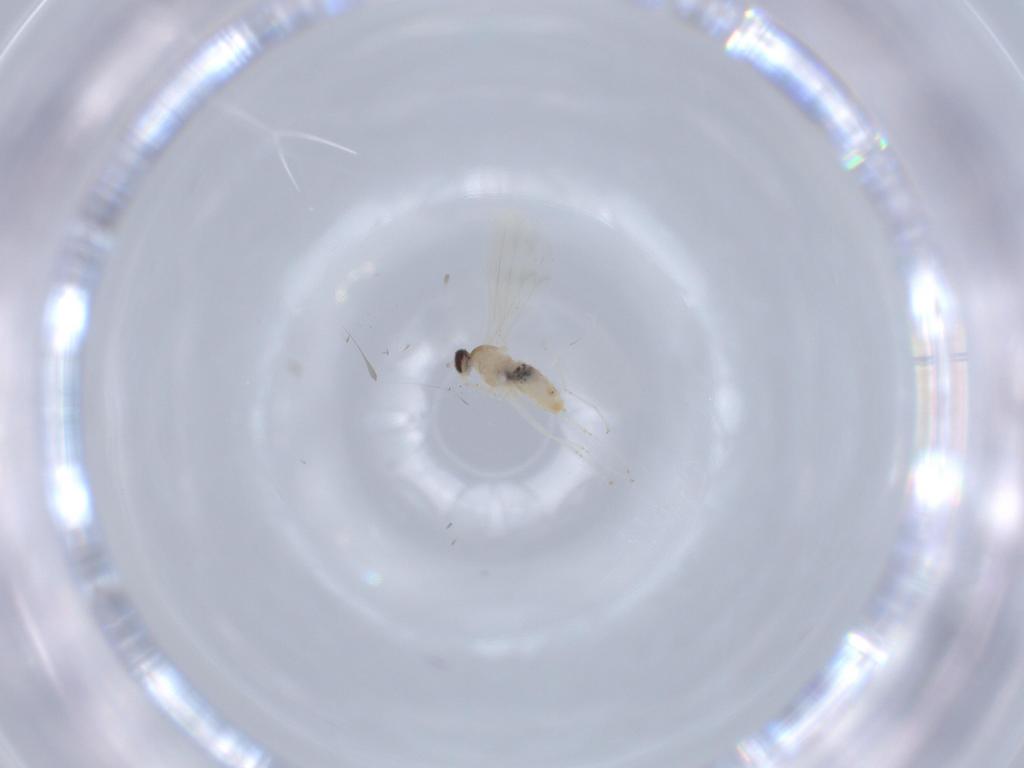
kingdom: Animalia
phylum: Arthropoda
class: Insecta
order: Diptera
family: Cecidomyiidae
